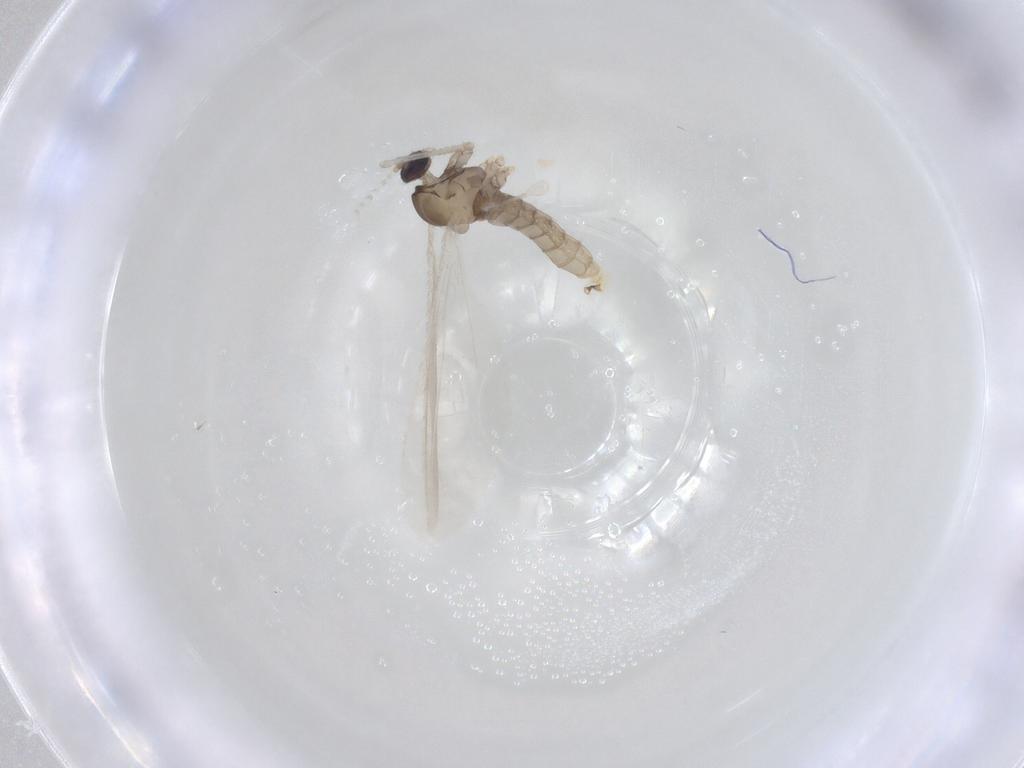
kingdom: Animalia
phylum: Arthropoda
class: Insecta
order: Diptera
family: Cecidomyiidae
